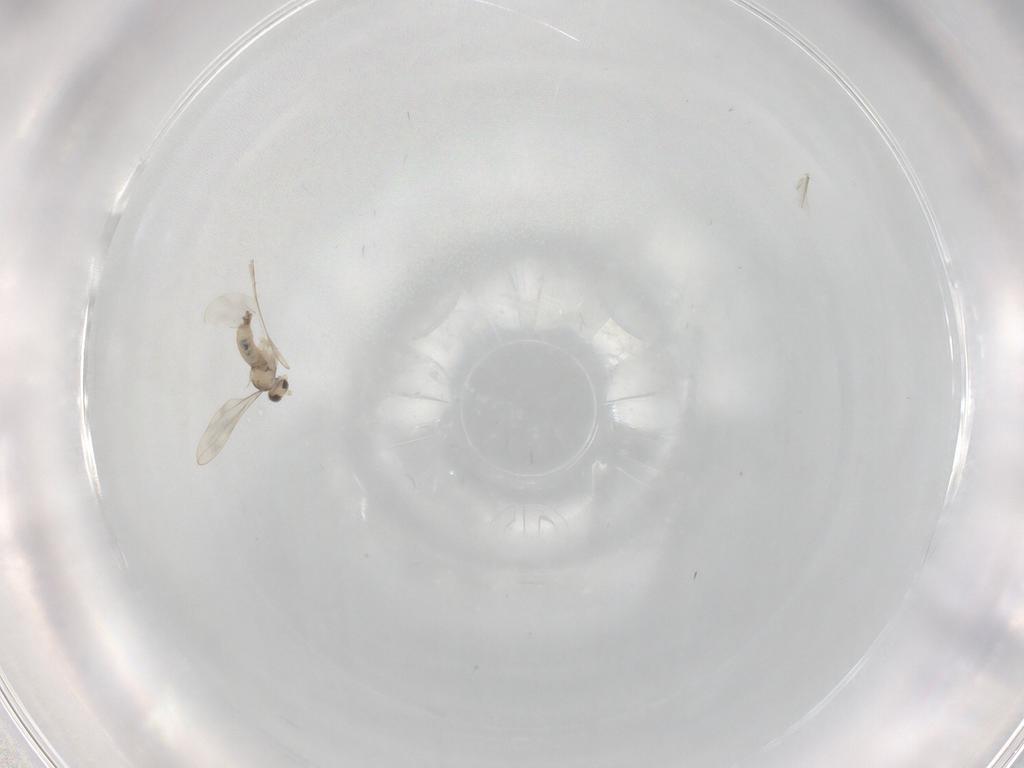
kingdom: Animalia
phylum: Arthropoda
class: Insecta
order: Diptera
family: Cecidomyiidae
